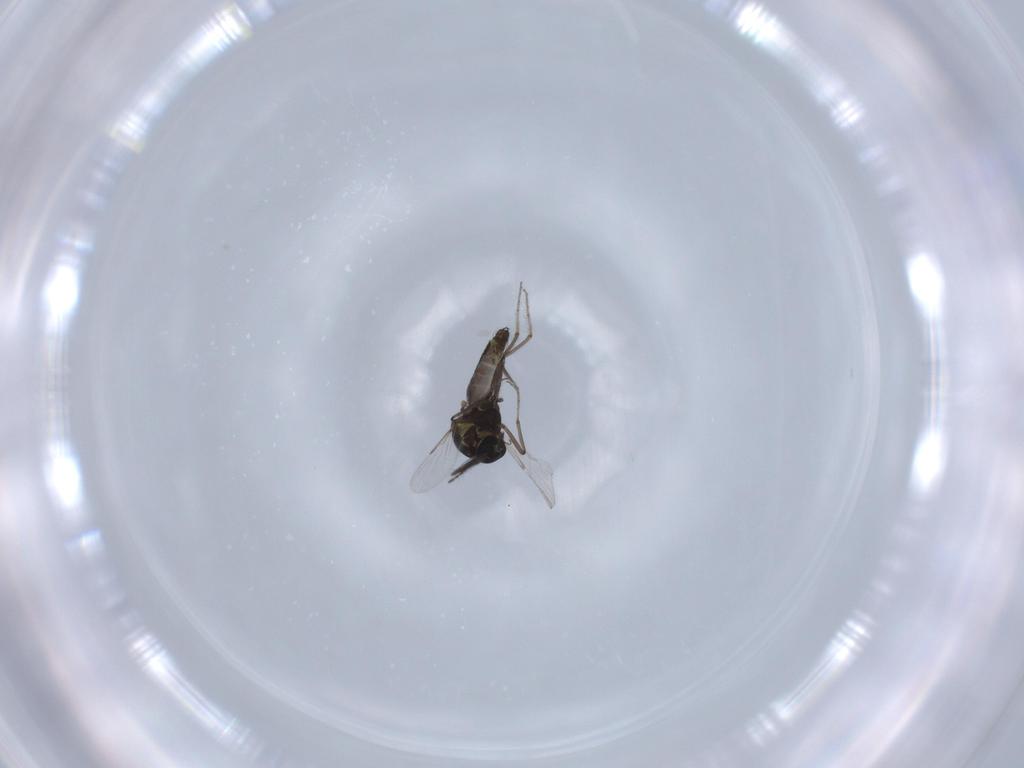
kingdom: Animalia
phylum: Arthropoda
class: Insecta
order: Diptera
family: Ceratopogonidae
